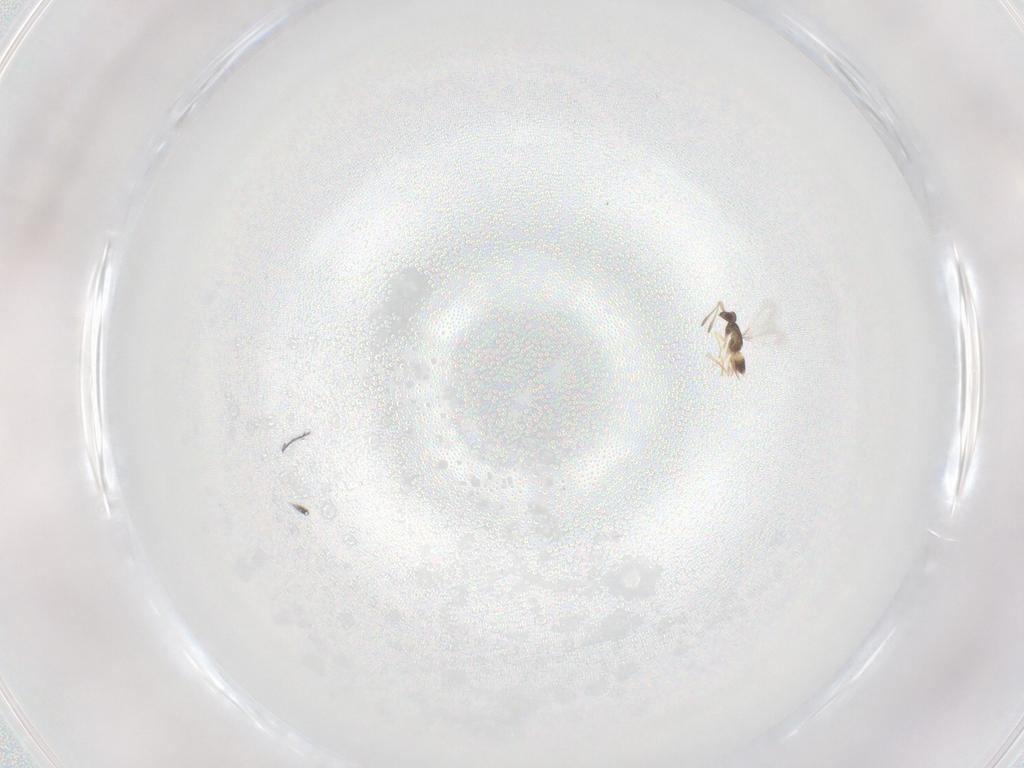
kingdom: Animalia
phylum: Arthropoda
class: Insecta
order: Hymenoptera
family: Mymaridae
